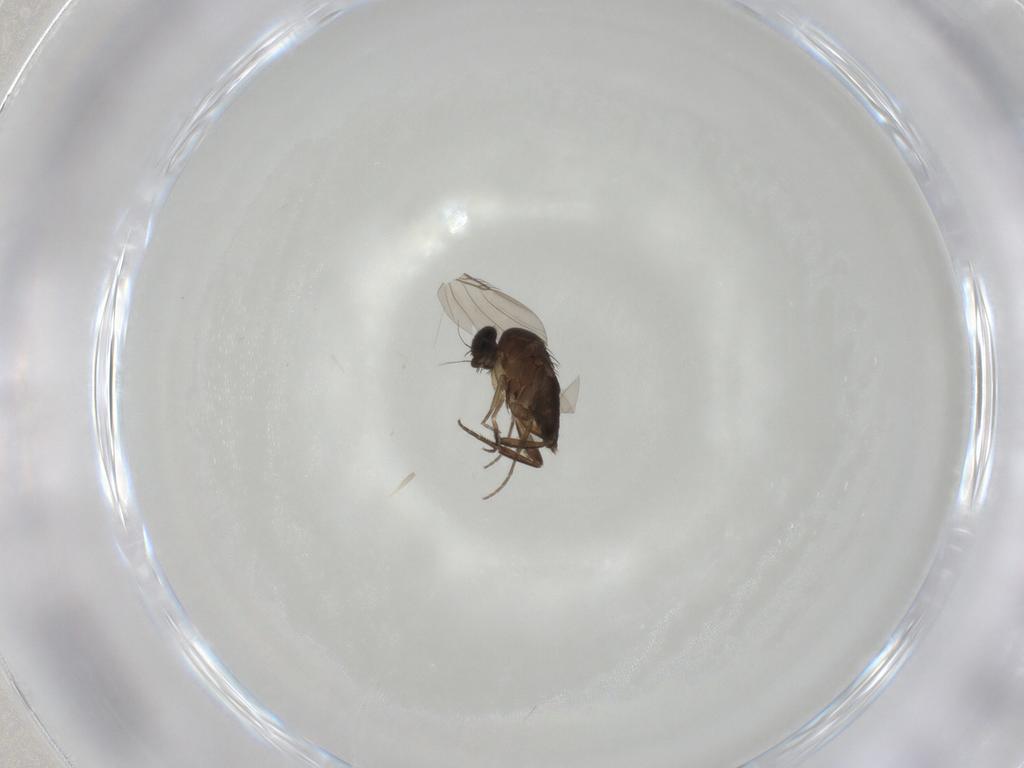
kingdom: Animalia
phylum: Arthropoda
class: Insecta
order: Diptera
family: Phoridae
